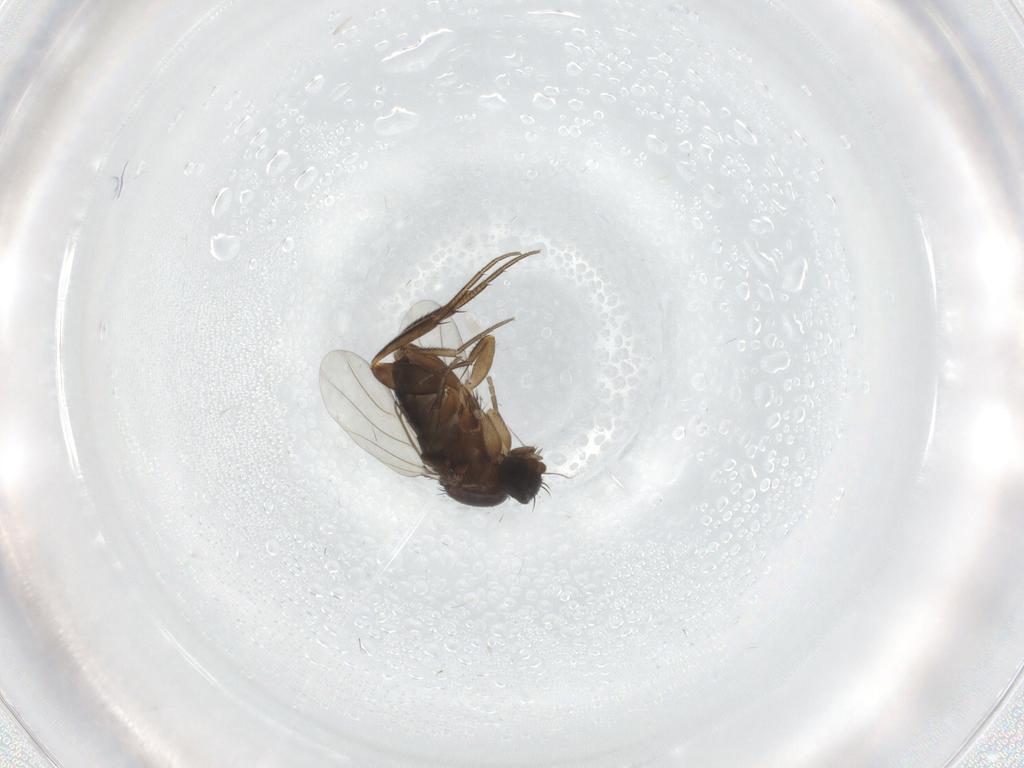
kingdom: Animalia
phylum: Arthropoda
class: Insecta
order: Diptera
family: Phoridae
